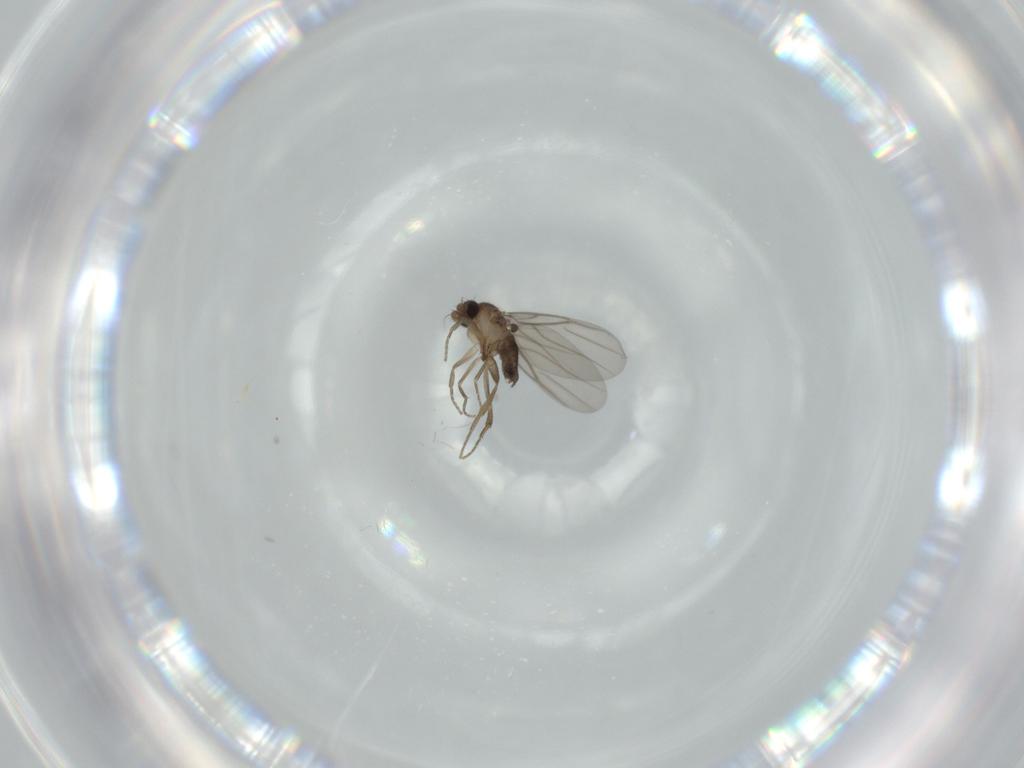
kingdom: Animalia
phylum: Arthropoda
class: Insecta
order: Diptera
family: Phoridae
